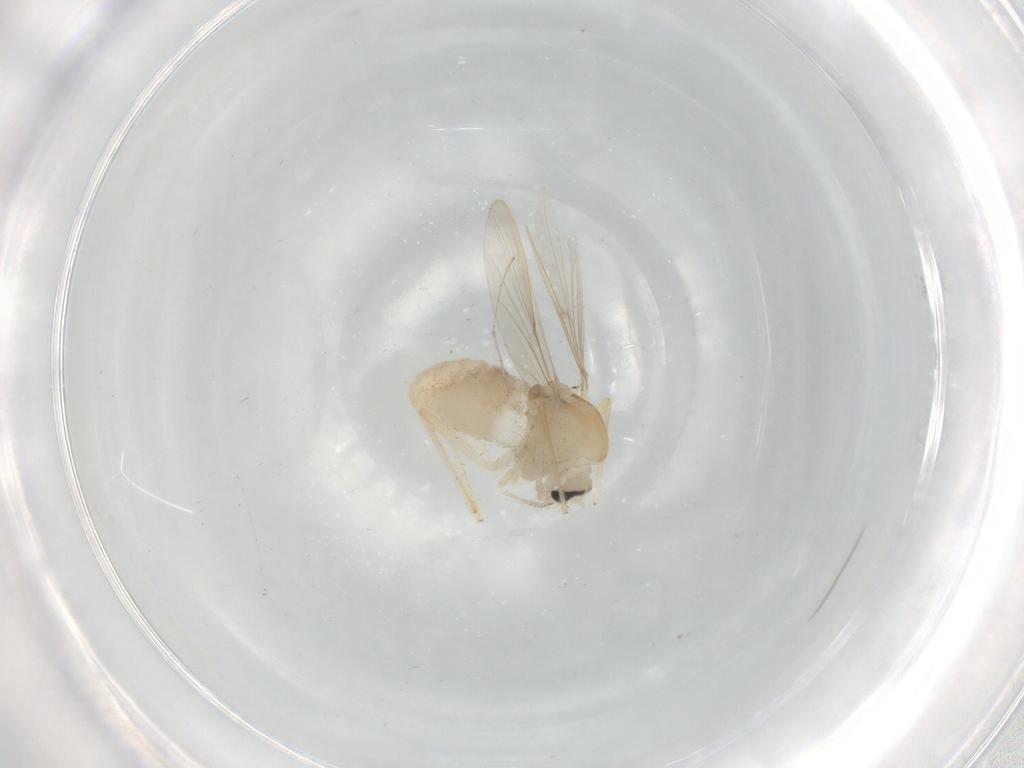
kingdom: Animalia
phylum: Arthropoda
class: Insecta
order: Diptera
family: Chironomidae
